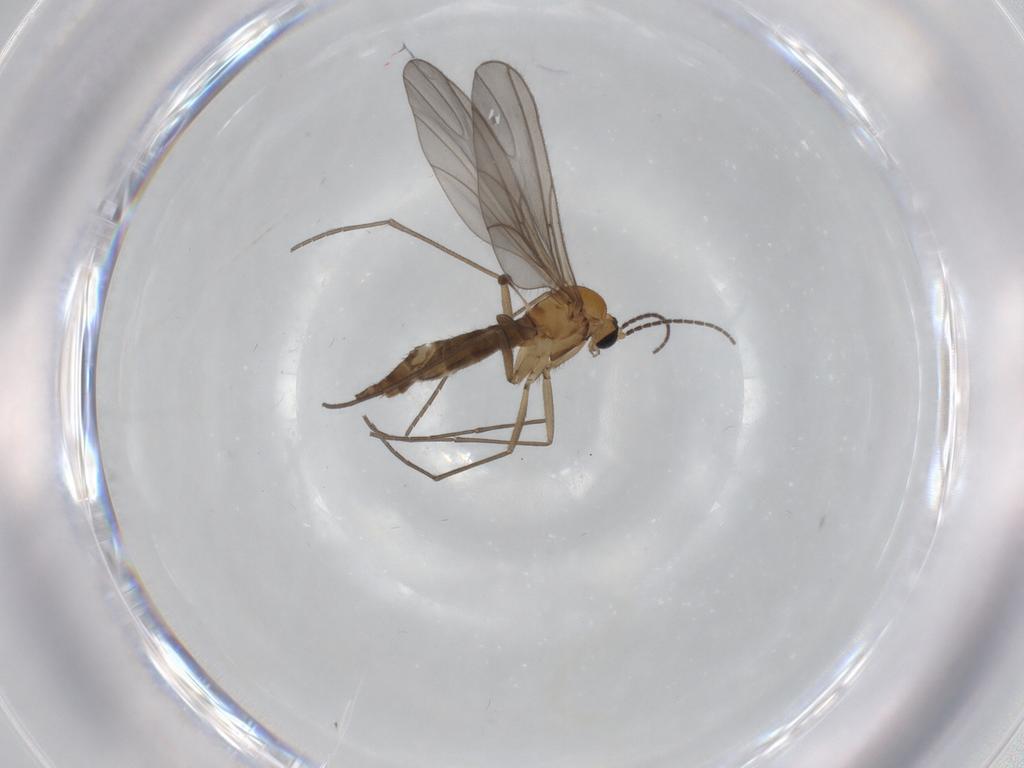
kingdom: Animalia
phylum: Arthropoda
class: Insecta
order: Diptera
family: Sciaridae
